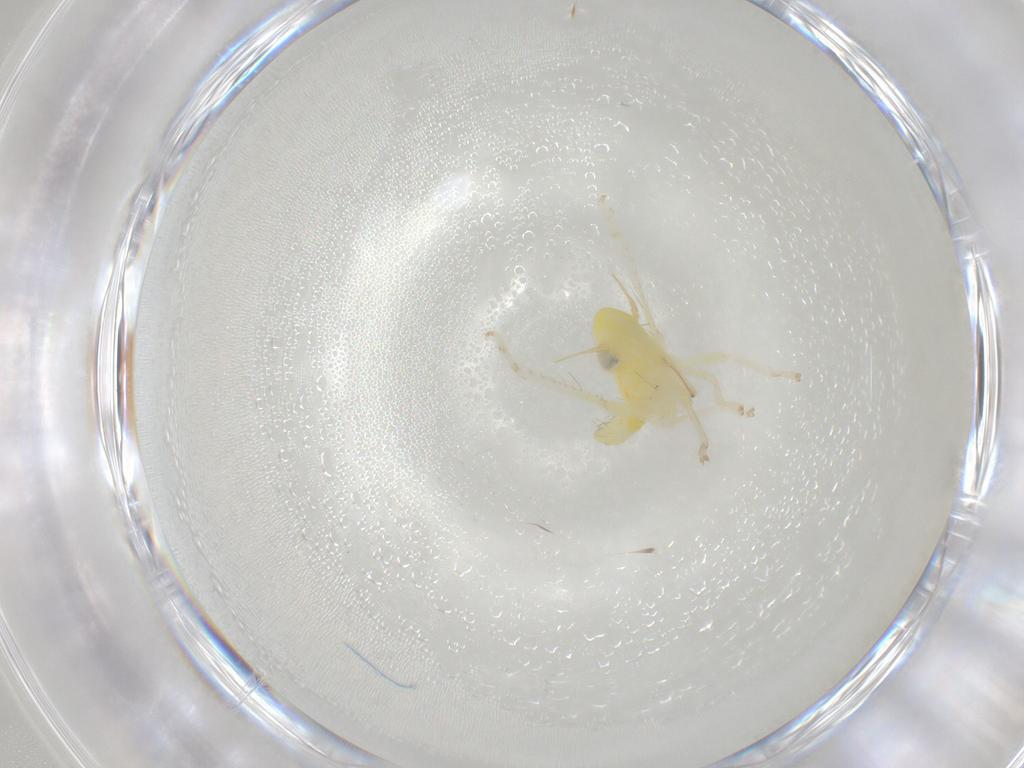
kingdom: Animalia
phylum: Arthropoda
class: Insecta
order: Hemiptera
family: Cicadellidae
